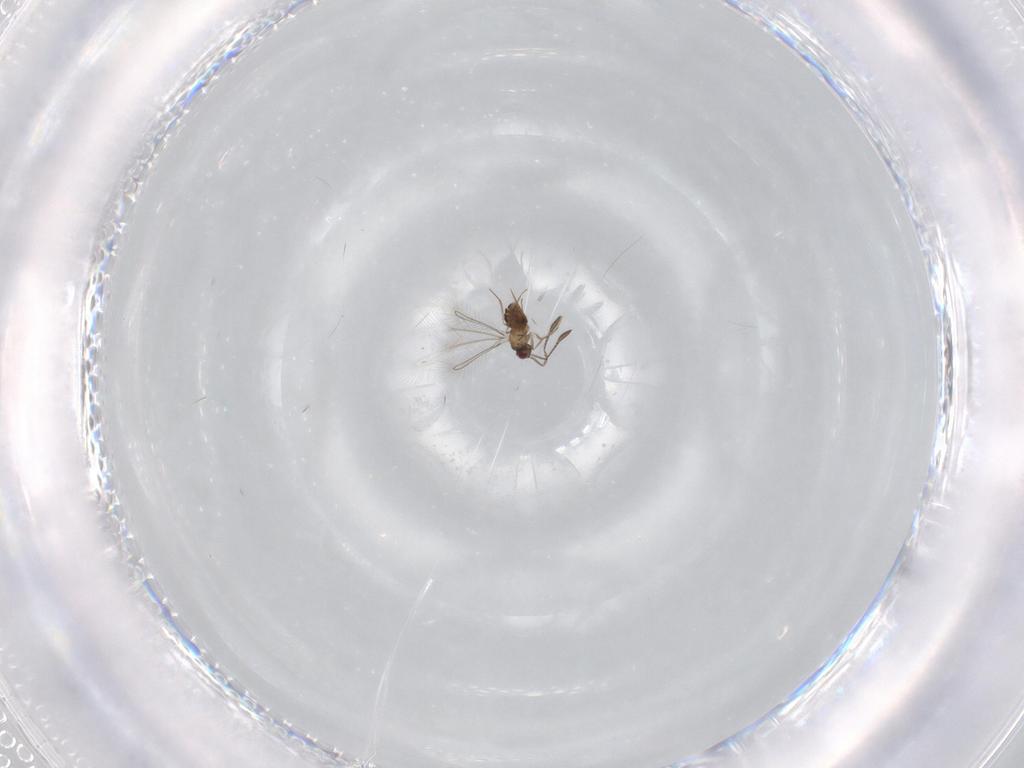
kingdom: Animalia
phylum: Arthropoda
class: Insecta
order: Hymenoptera
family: Mymaridae
